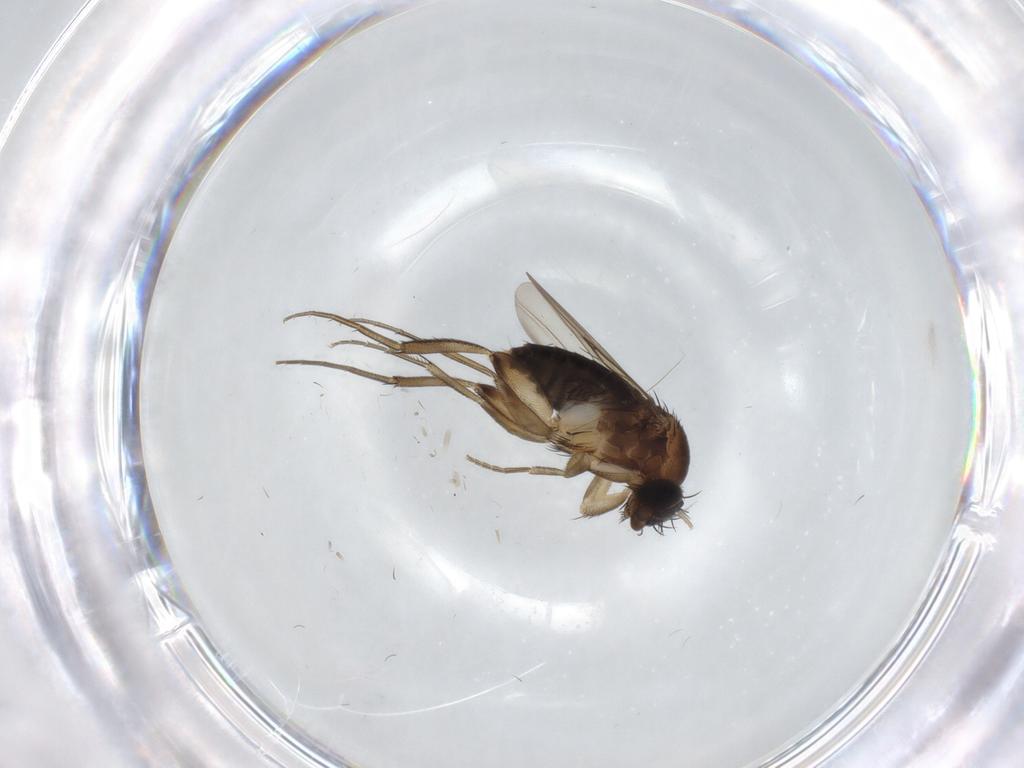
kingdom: Animalia
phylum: Arthropoda
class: Insecta
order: Diptera
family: Phoridae
